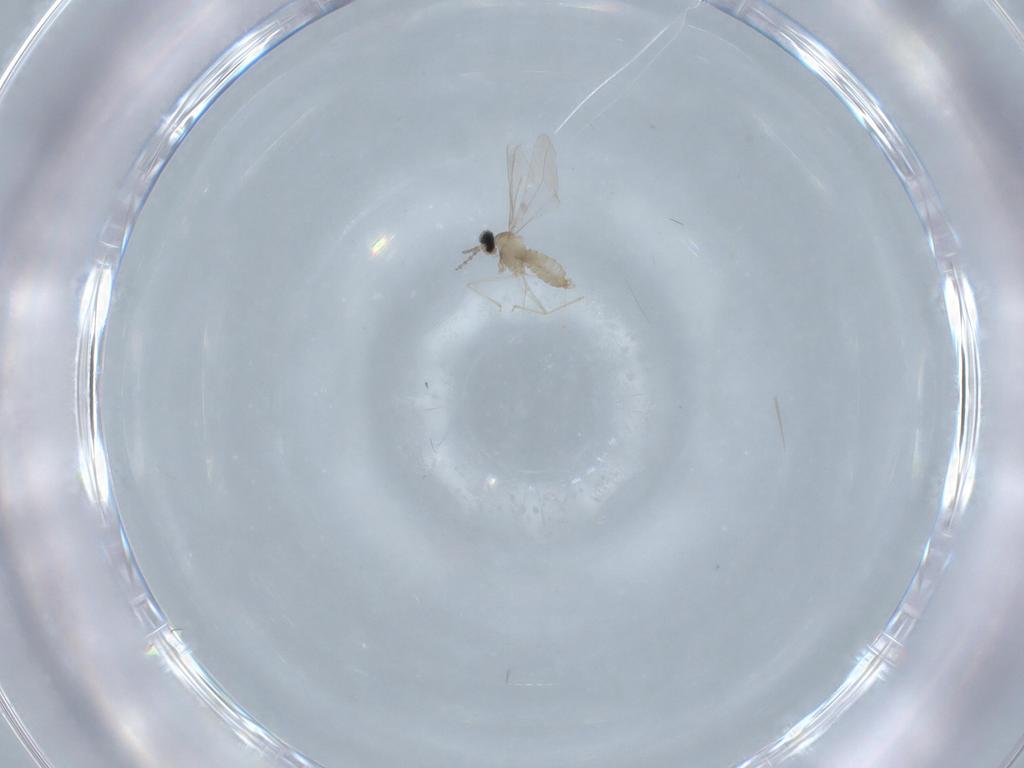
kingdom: Animalia
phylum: Arthropoda
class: Insecta
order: Diptera
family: Cecidomyiidae
